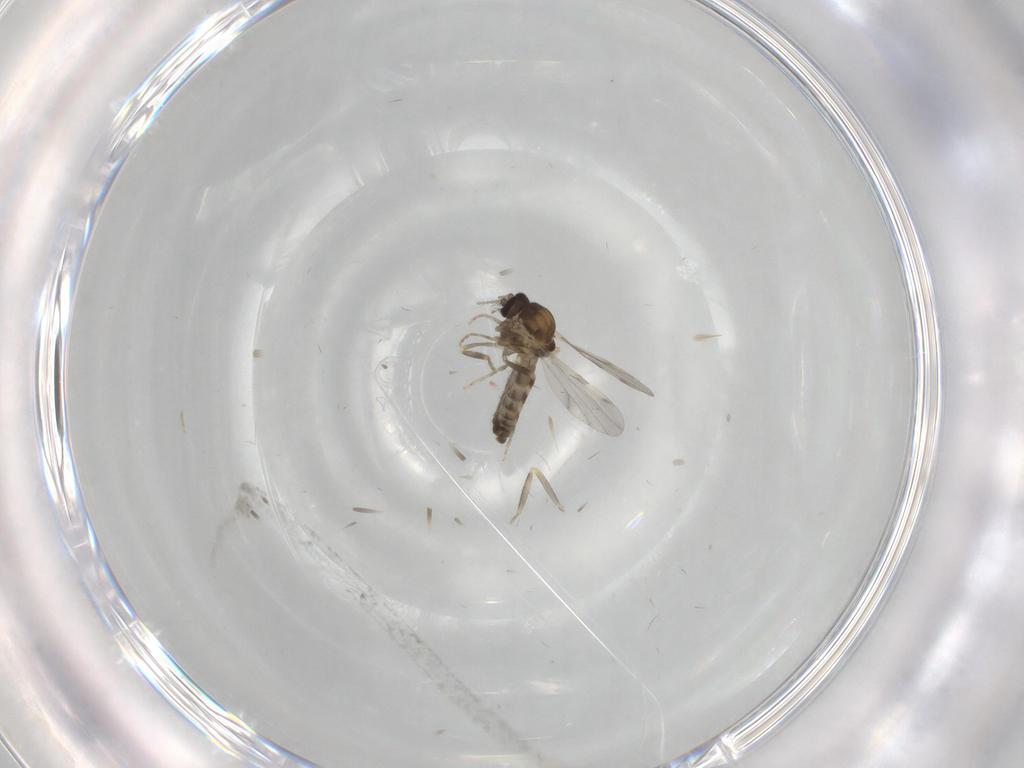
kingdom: Animalia
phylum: Arthropoda
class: Insecta
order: Diptera
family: Ceratopogonidae
